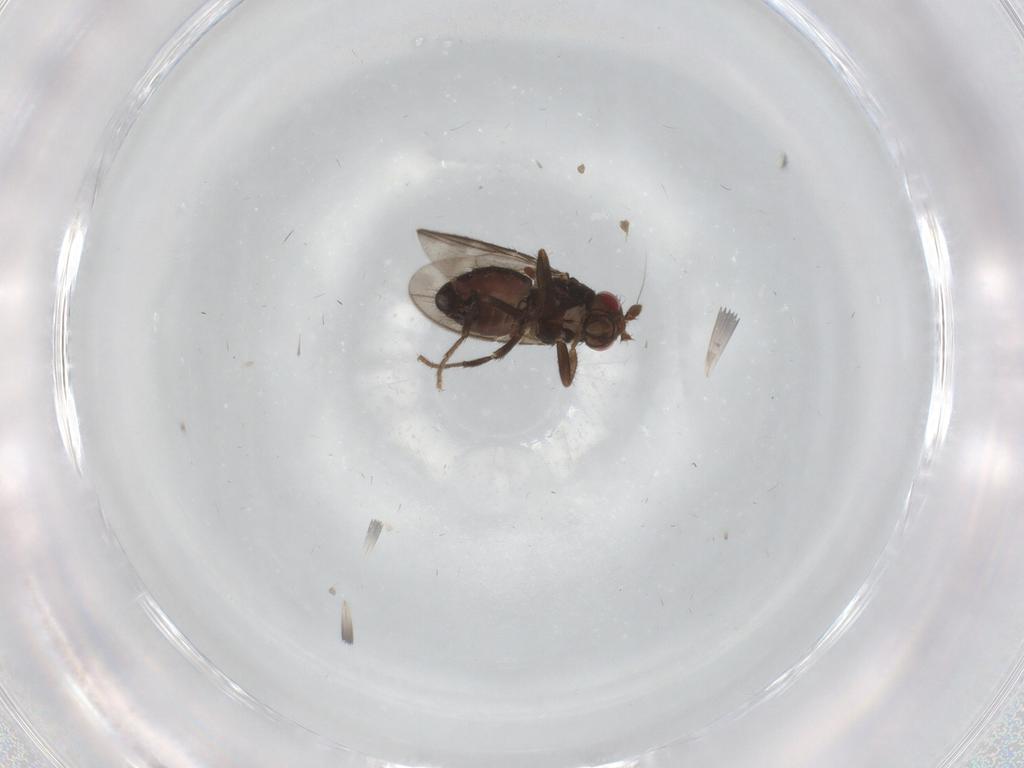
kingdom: Animalia
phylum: Arthropoda
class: Insecta
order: Diptera
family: Sphaeroceridae
